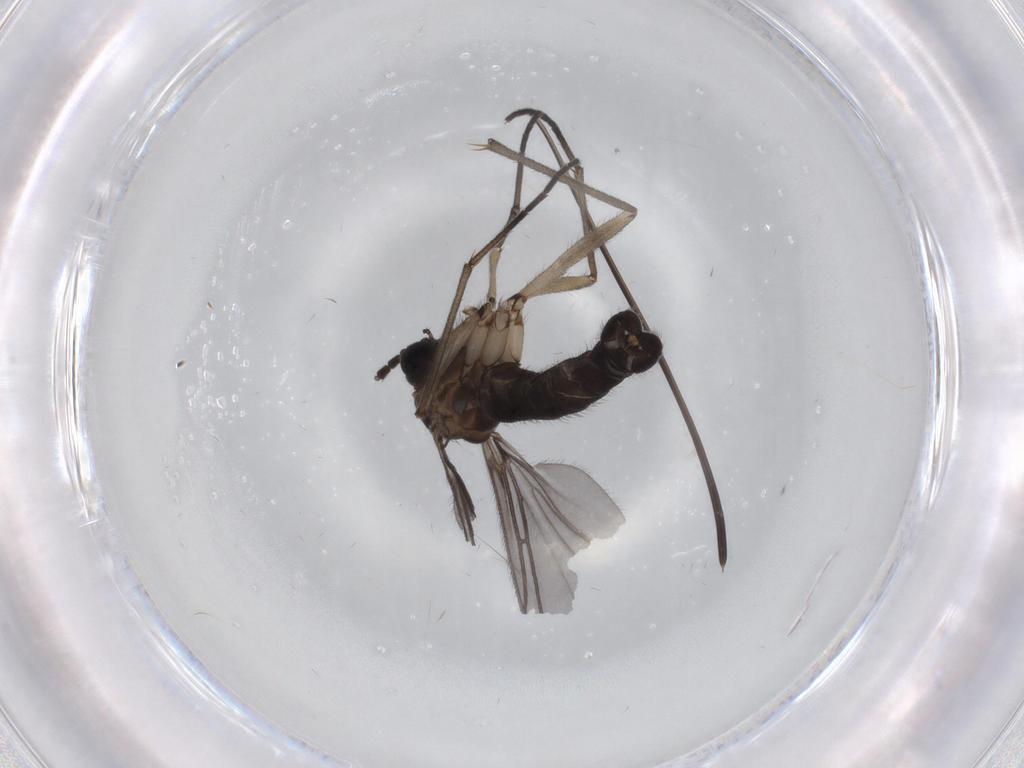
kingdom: Animalia
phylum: Arthropoda
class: Insecta
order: Diptera
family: Sciaridae
